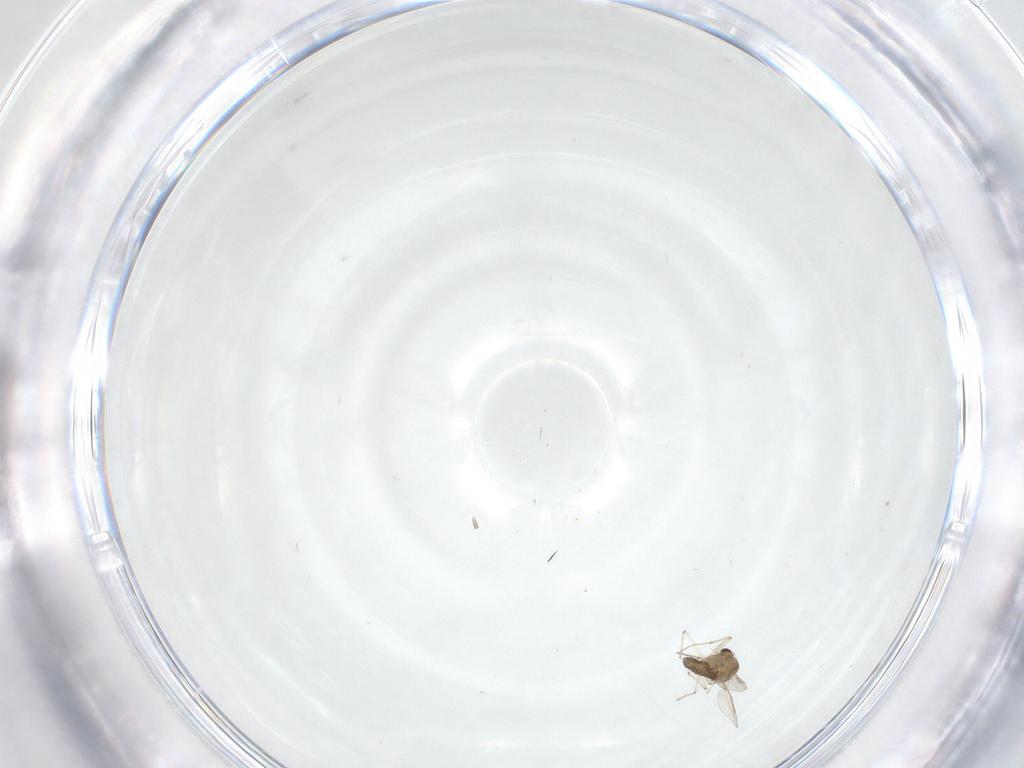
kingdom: Animalia
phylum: Arthropoda
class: Insecta
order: Diptera
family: Chironomidae
